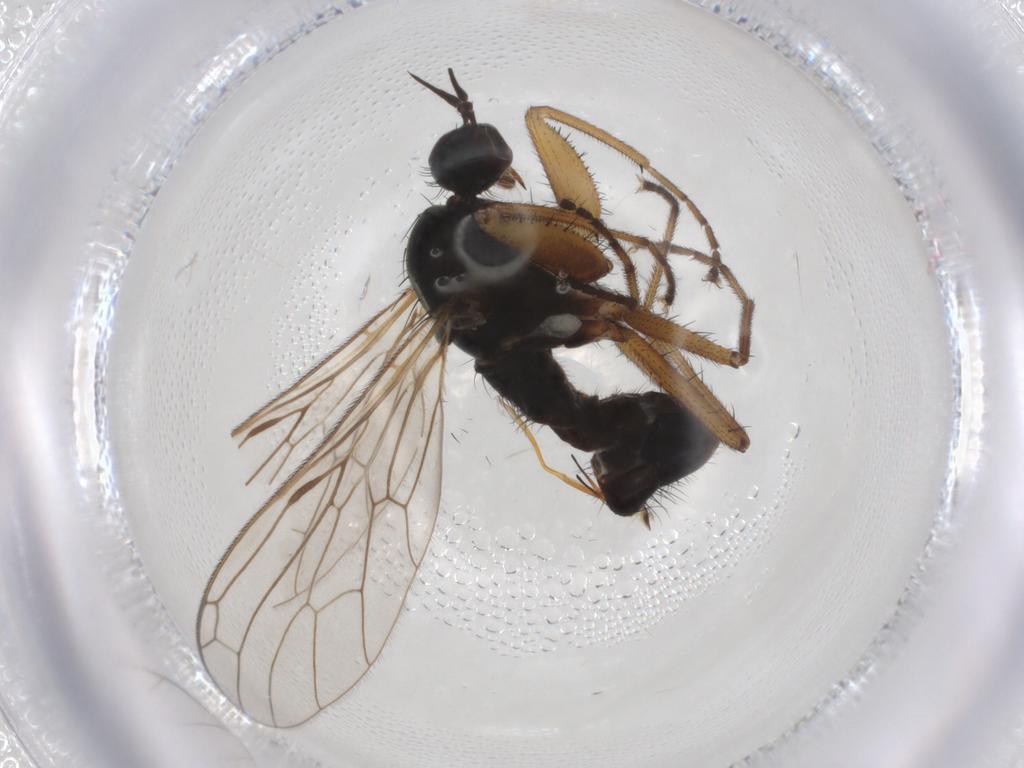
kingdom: Animalia
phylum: Arthropoda
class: Insecta
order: Diptera
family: Empididae
